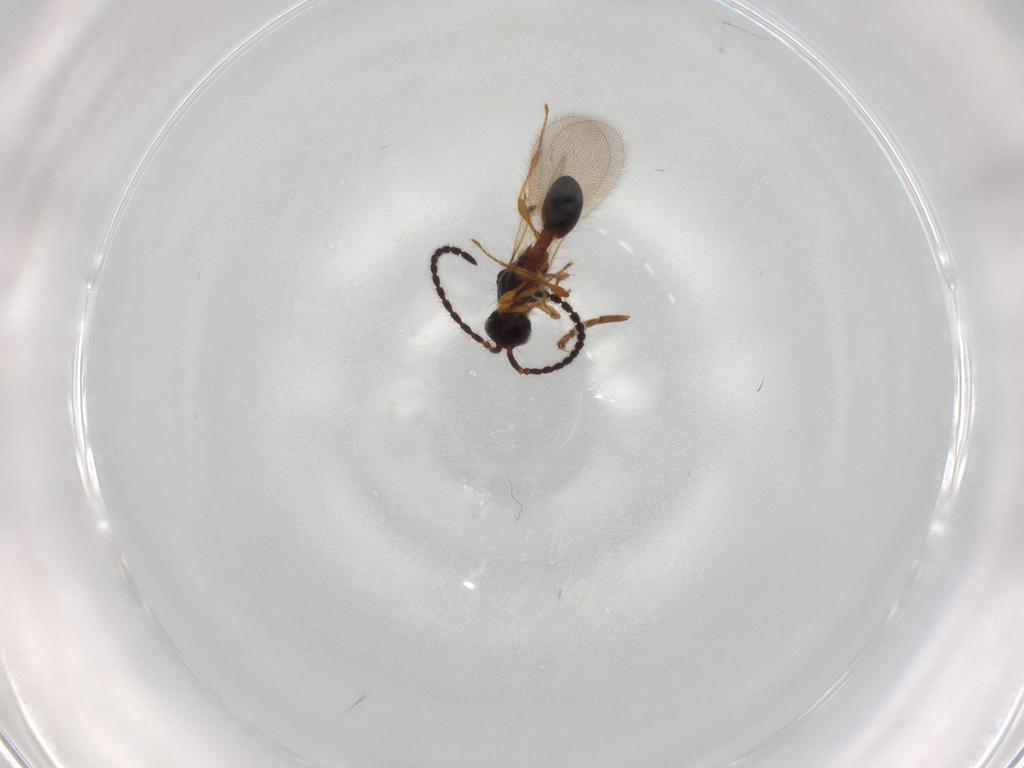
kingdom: Animalia
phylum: Arthropoda
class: Insecta
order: Hymenoptera
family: Formicidae
